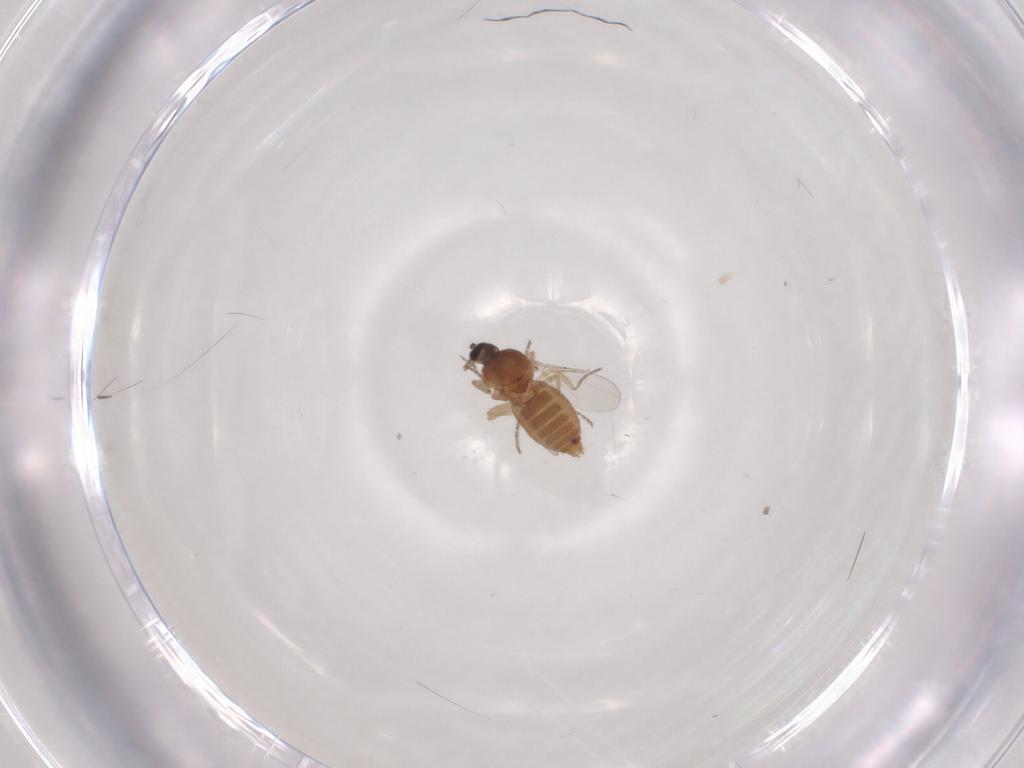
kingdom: Animalia
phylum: Arthropoda
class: Insecta
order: Diptera
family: Ceratopogonidae
